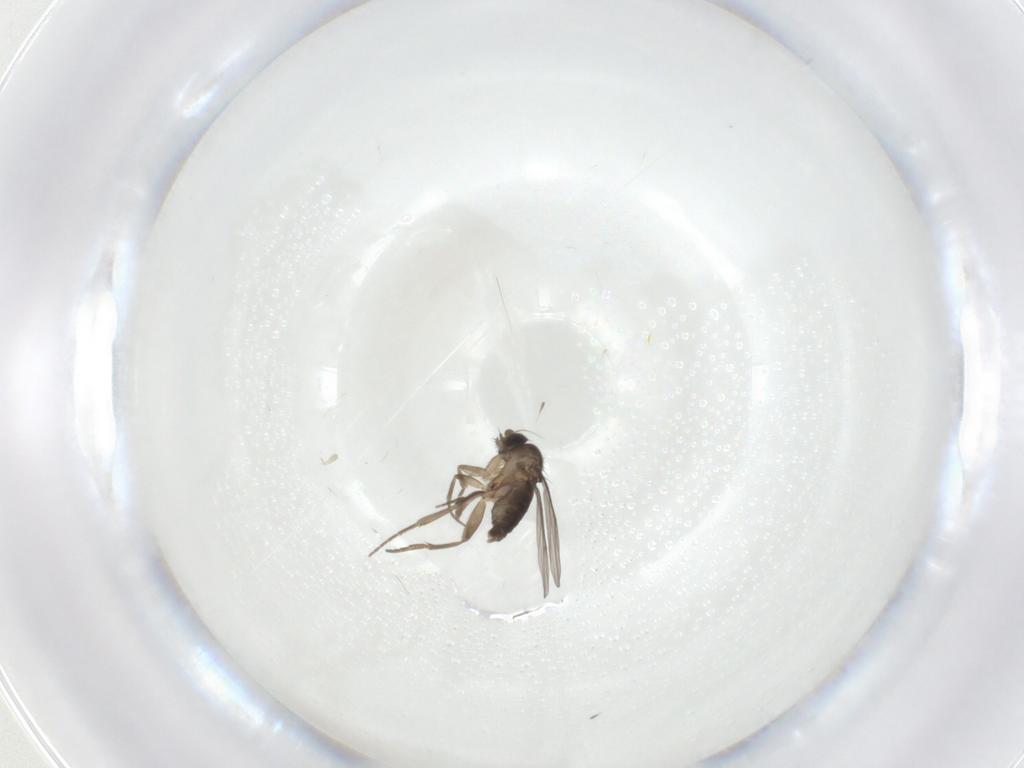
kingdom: Animalia
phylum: Arthropoda
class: Insecta
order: Diptera
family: Phoridae
